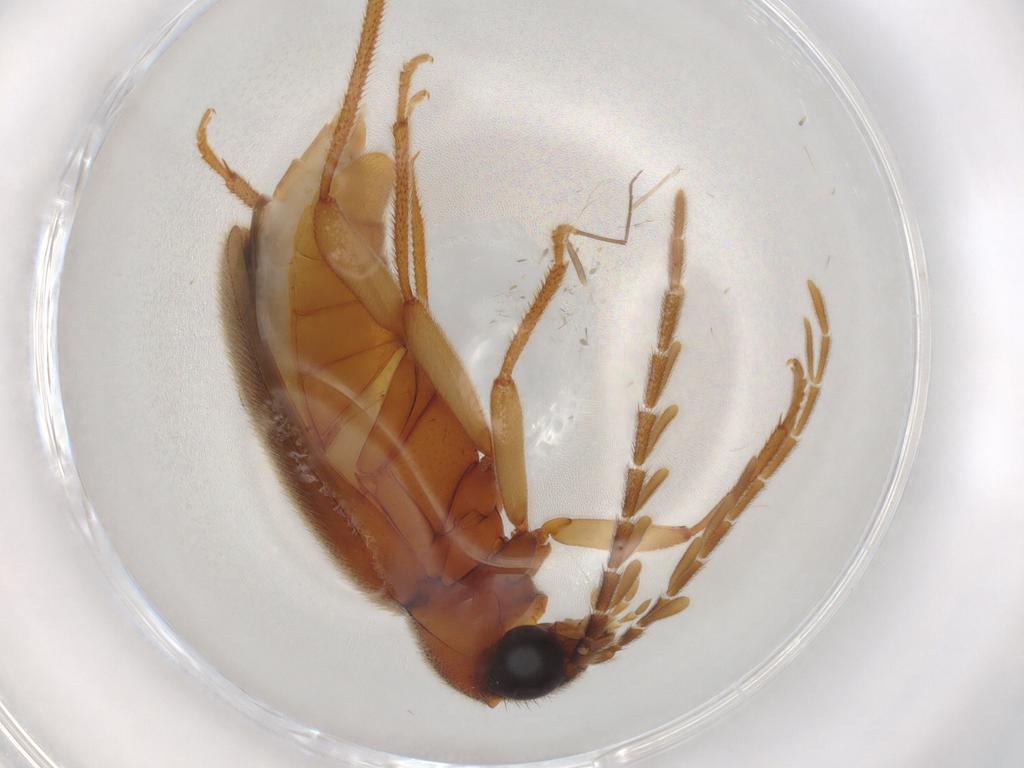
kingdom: Animalia
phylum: Arthropoda
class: Insecta
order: Coleoptera
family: Ptilodactylidae
